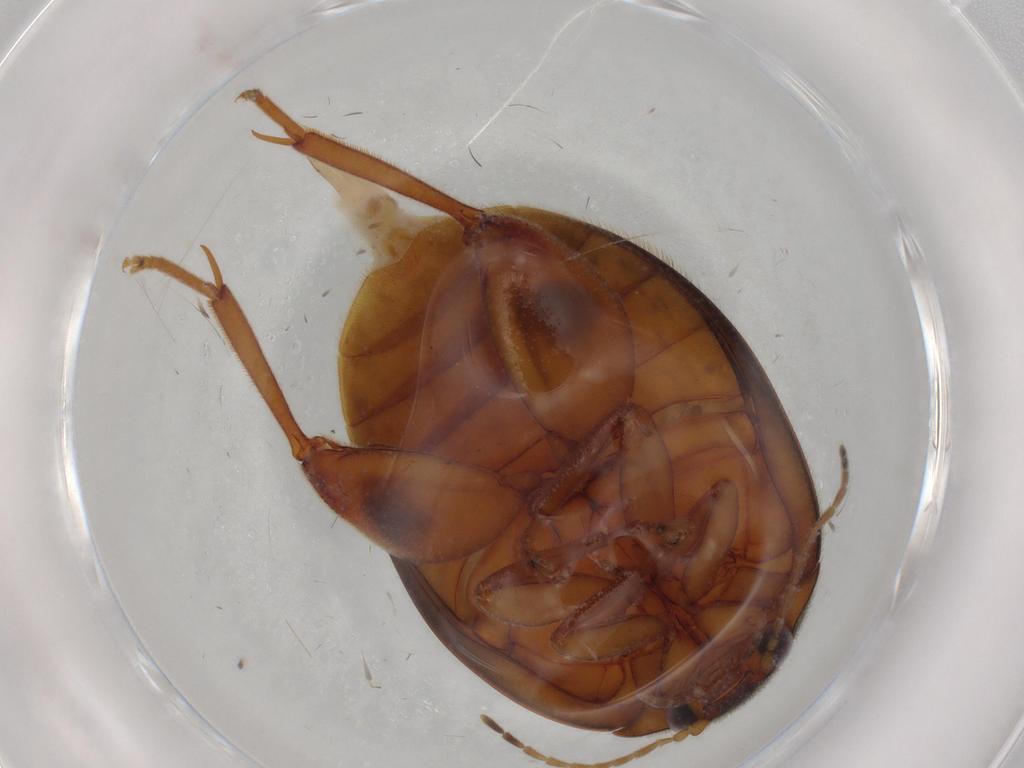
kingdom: Animalia
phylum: Arthropoda
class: Insecta
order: Coleoptera
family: Scirtidae
